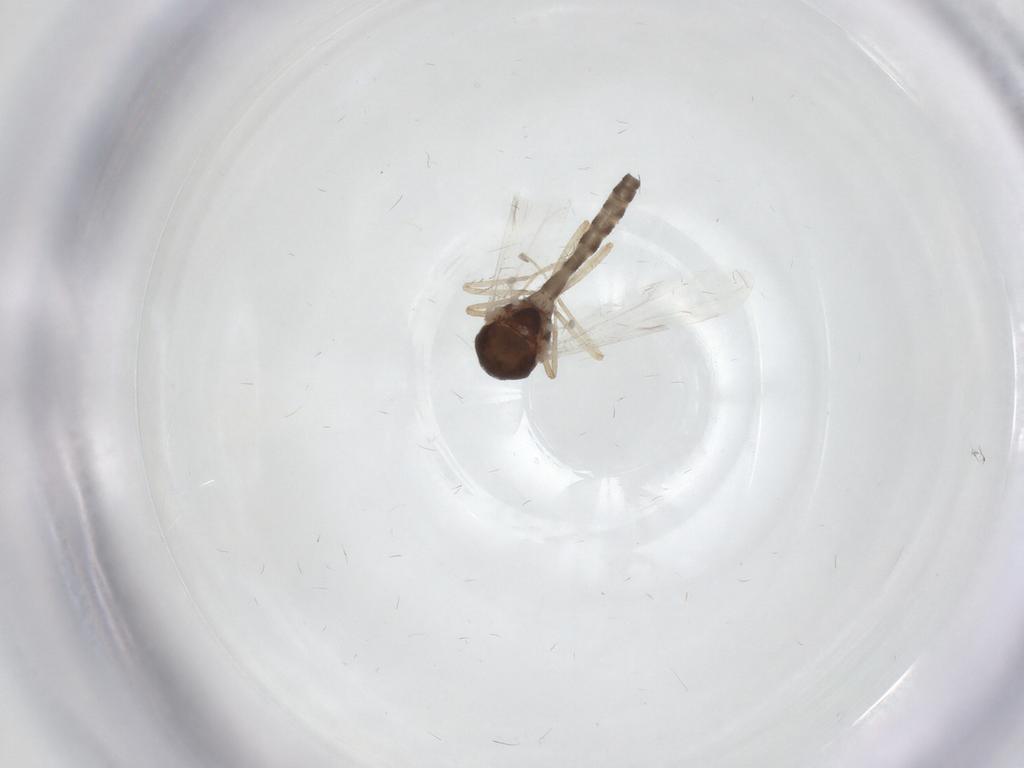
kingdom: Animalia
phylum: Arthropoda
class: Insecta
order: Diptera
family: Ceratopogonidae
